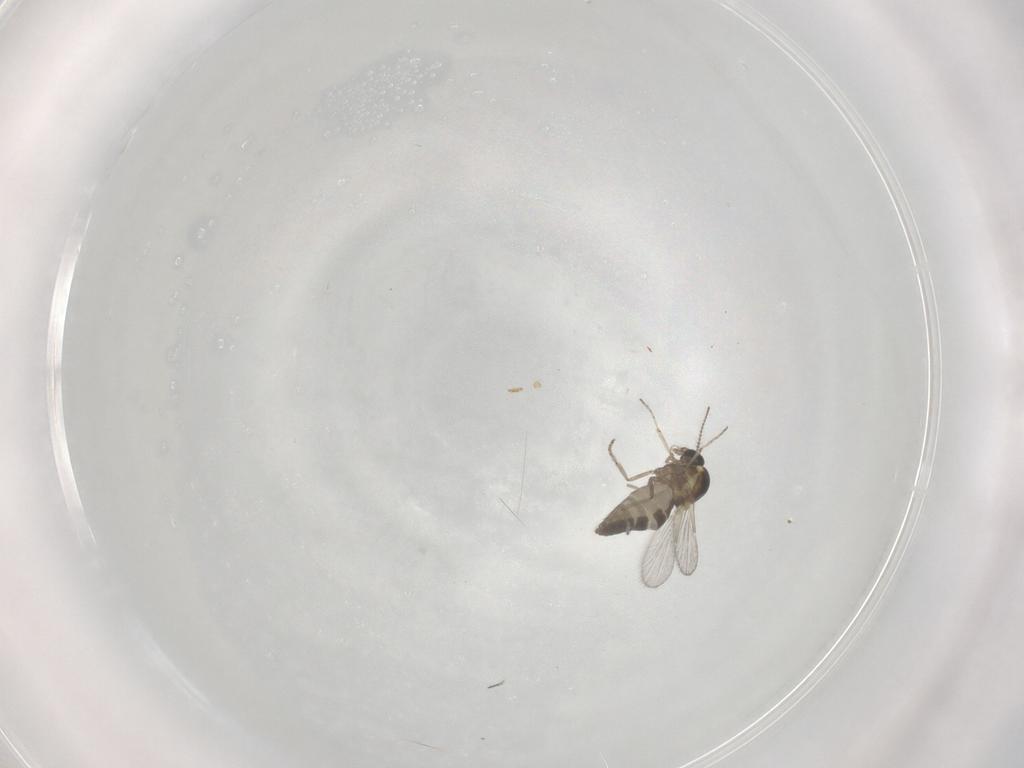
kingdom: Animalia
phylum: Arthropoda
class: Insecta
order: Diptera
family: Ceratopogonidae
